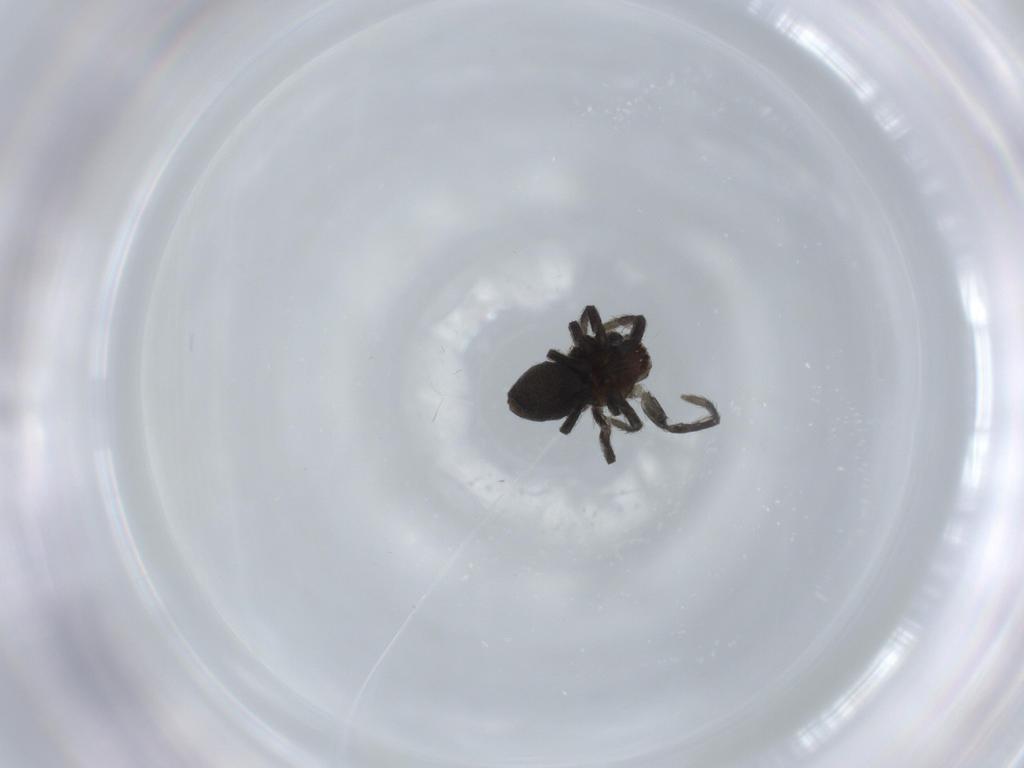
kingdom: Animalia
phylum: Arthropoda
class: Arachnida
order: Araneae
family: Dictynidae
